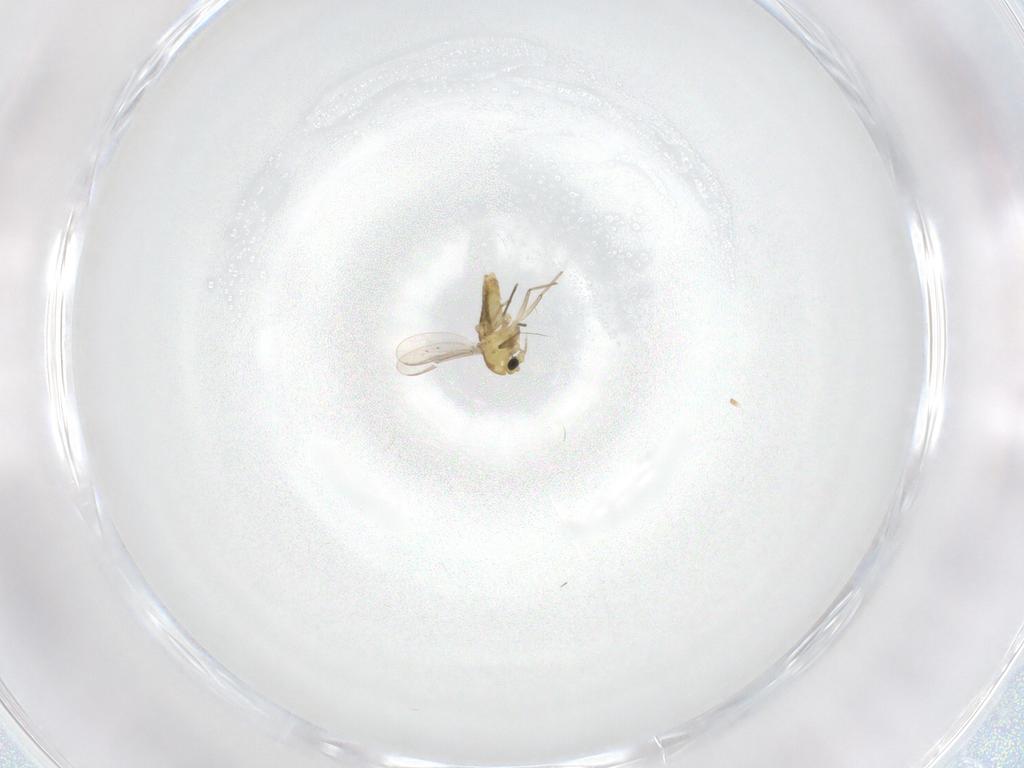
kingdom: Animalia
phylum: Arthropoda
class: Insecta
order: Diptera
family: Chironomidae
